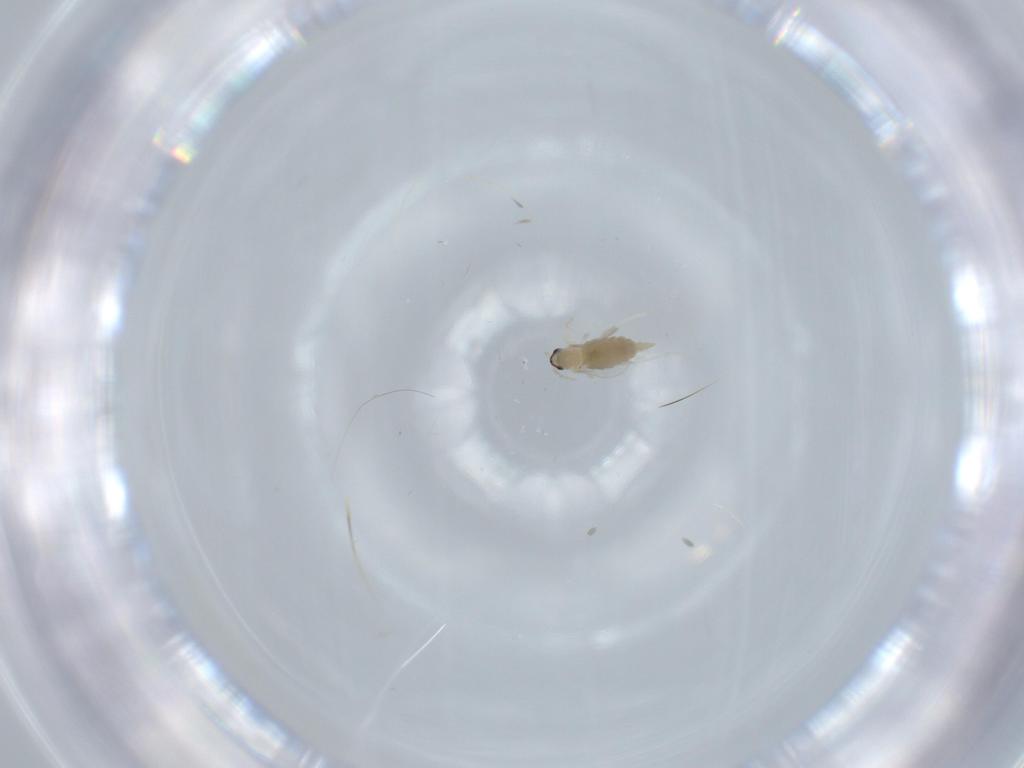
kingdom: Animalia
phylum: Arthropoda
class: Insecta
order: Diptera
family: Cecidomyiidae
